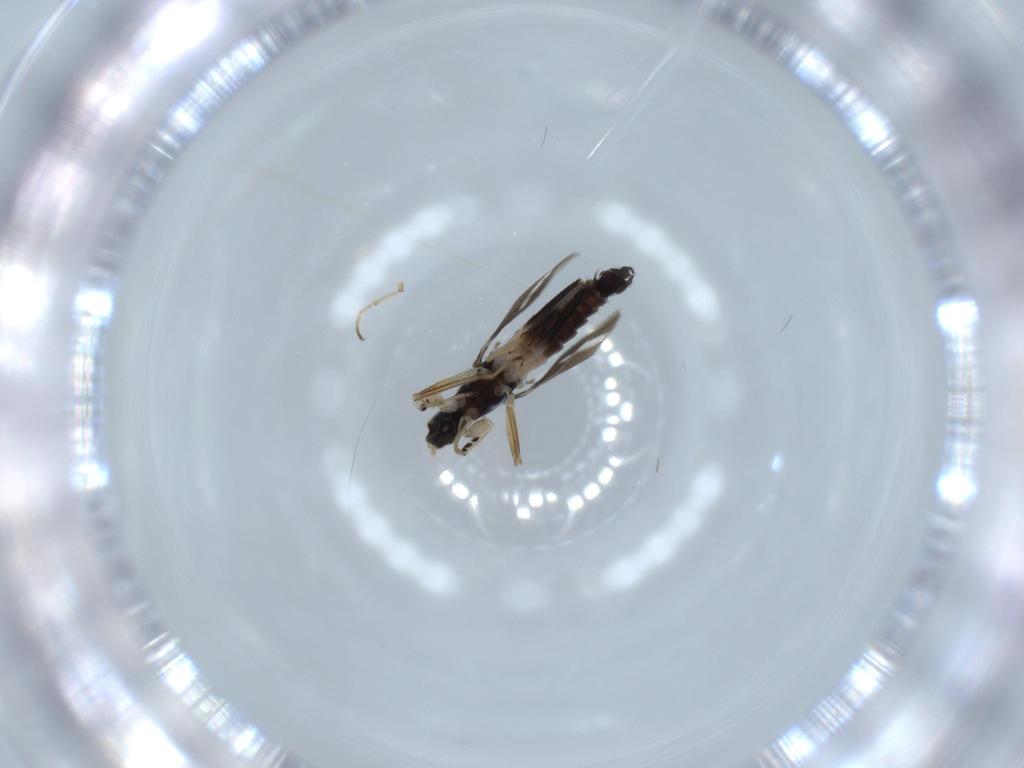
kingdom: Animalia
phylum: Arthropoda
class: Insecta
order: Diptera
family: Hybotidae
